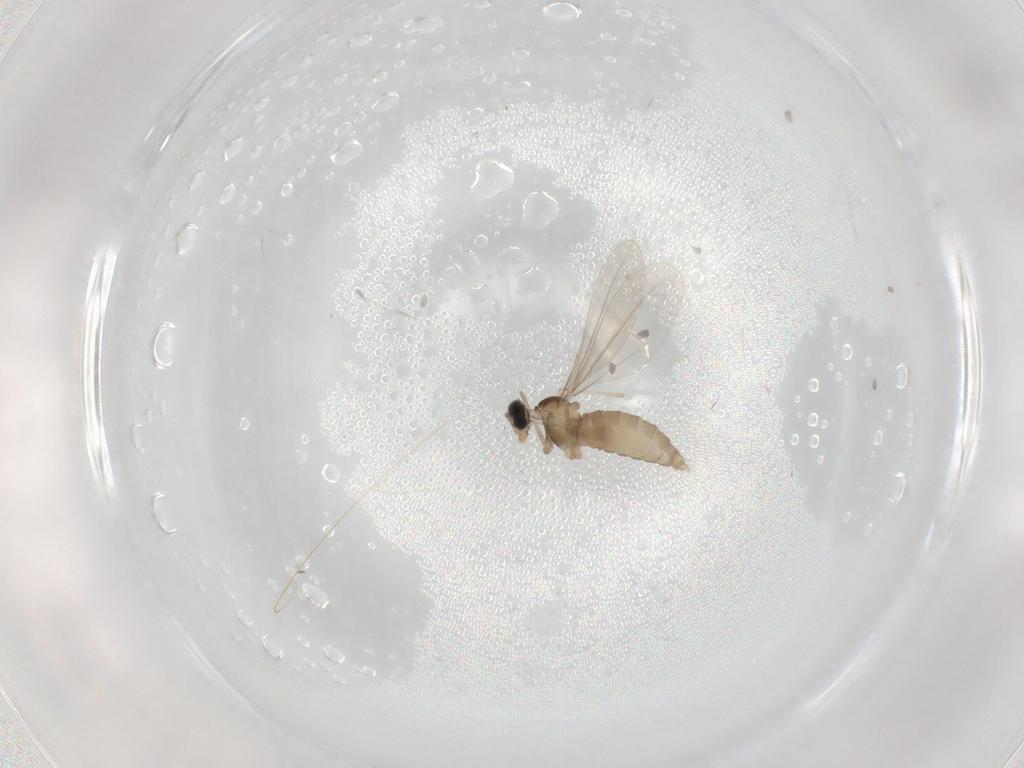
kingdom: Animalia
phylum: Arthropoda
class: Insecta
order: Diptera
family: Cecidomyiidae
